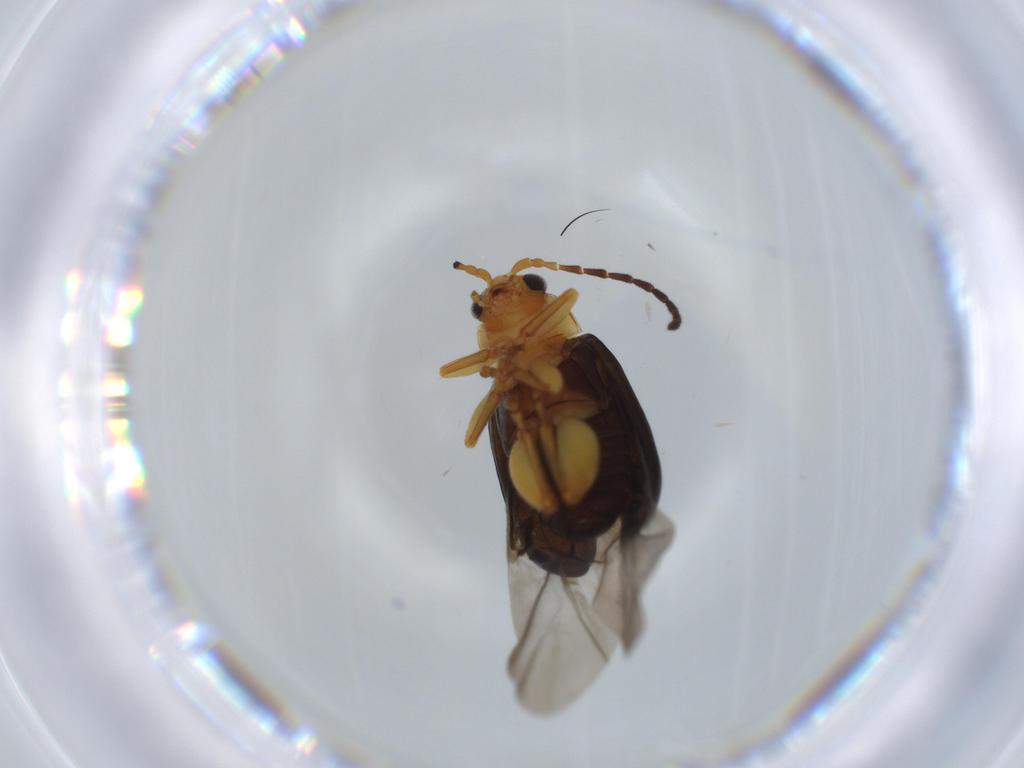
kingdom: Animalia
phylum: Arthropoda
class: Insecta
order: Coleoptera
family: Chrysomelidae
